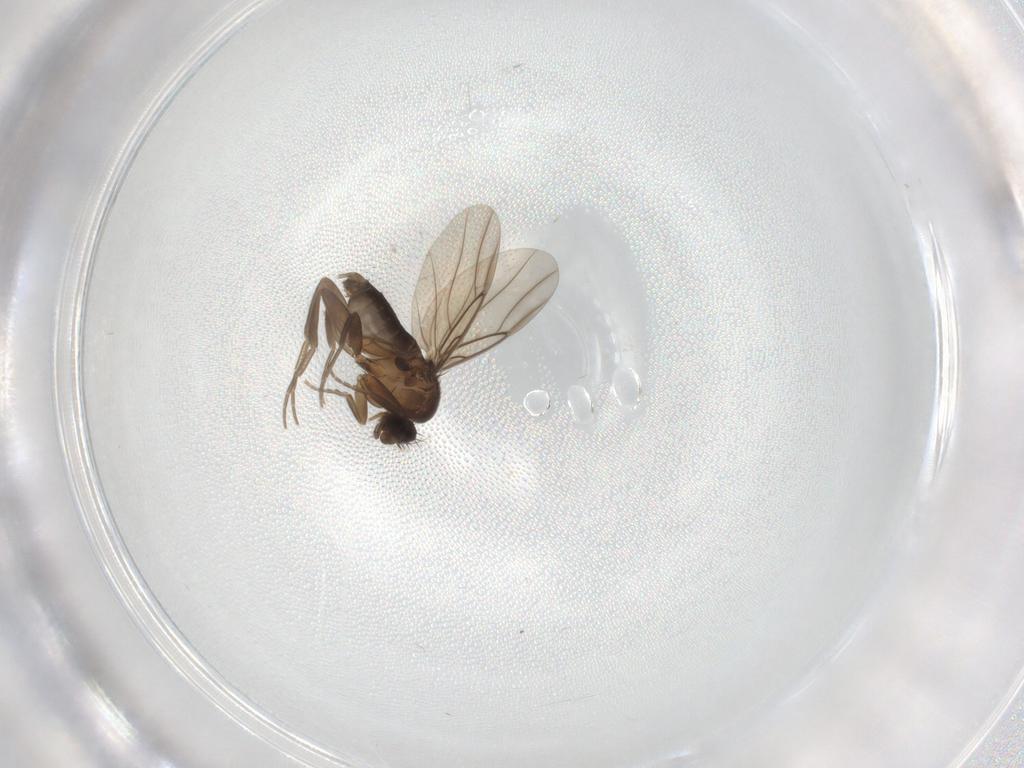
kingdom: Animalia
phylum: Arthropoda
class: Insecta
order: Diptera
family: Phoridae
